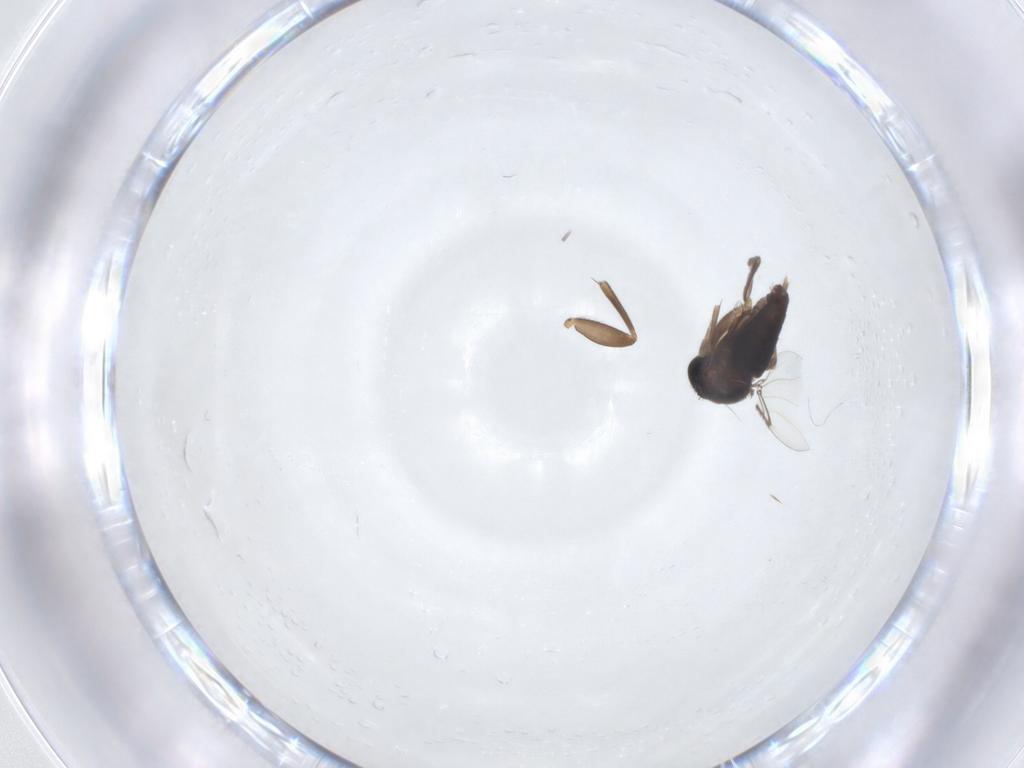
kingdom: Animalia
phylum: Arthropoda
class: Insecta
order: Diptera
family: Phoridae
